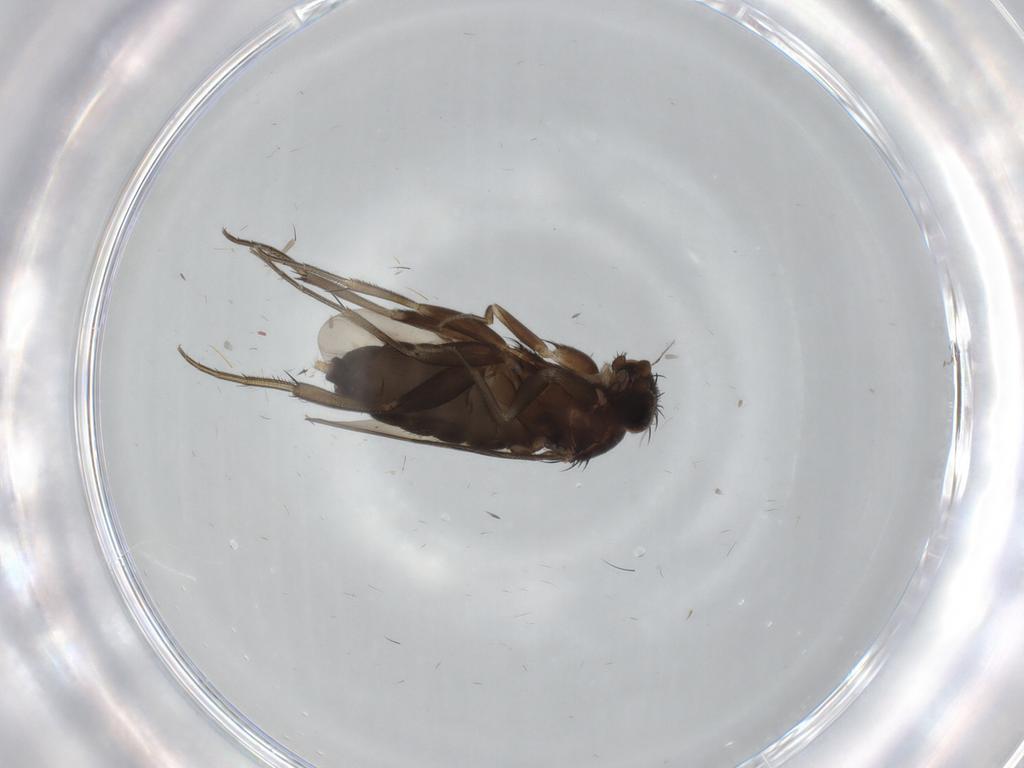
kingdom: Animalia
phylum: Arthropoda
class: Insecta
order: Diptera
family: Phoridae
